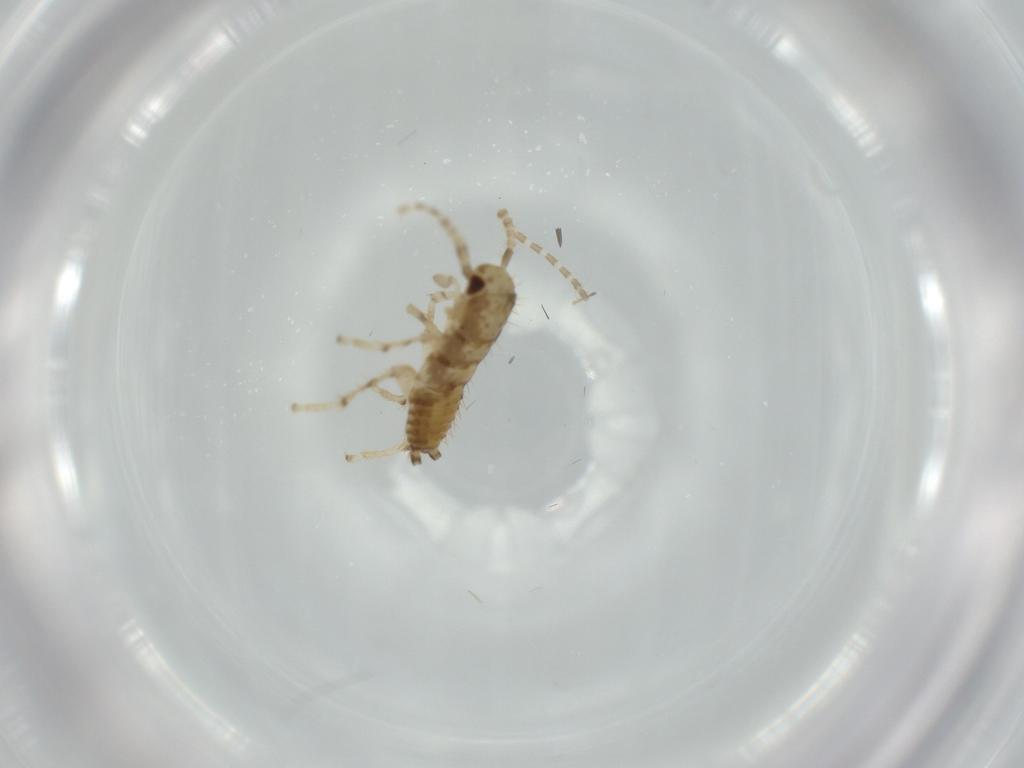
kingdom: Animalia
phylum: Arthropoda
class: Insecta
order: Blattodea
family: Ectobiidae
